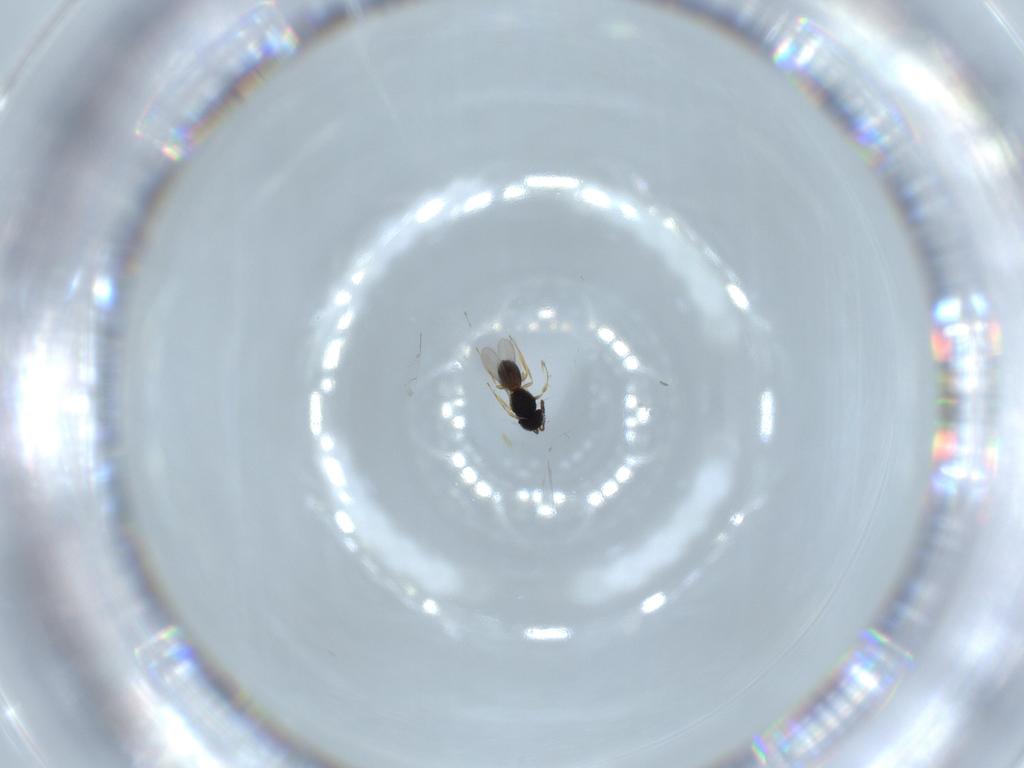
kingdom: Animalia
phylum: Arthropoda
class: Insecta
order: Hymenoptera
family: Scelionidae
